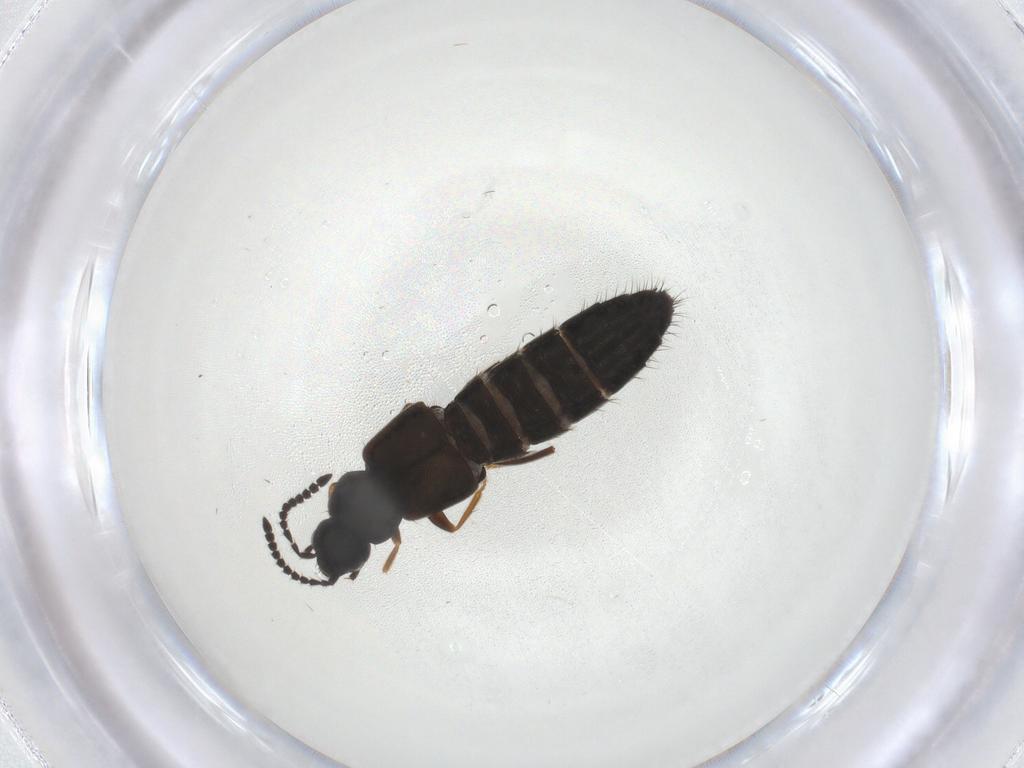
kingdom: Animalia
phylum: Arthropoda
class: Insecta
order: Coleoptera
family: Staphylinidae
